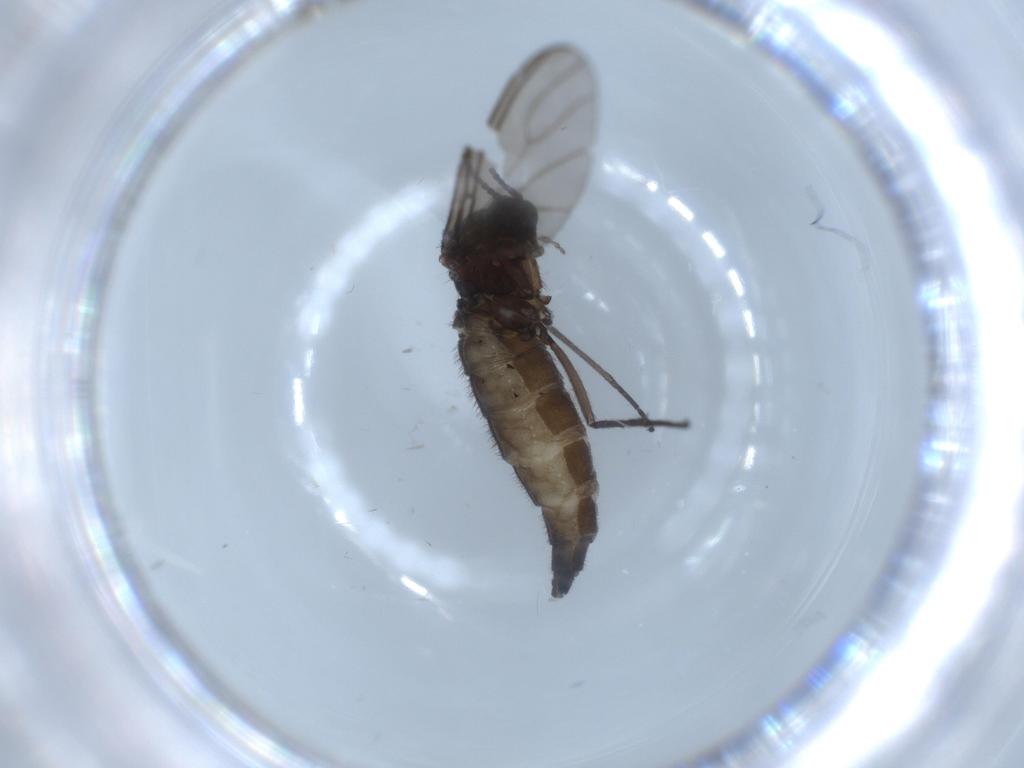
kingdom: Animalia
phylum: Arthropoda
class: Insecta
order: Diptera
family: Sciaridae
